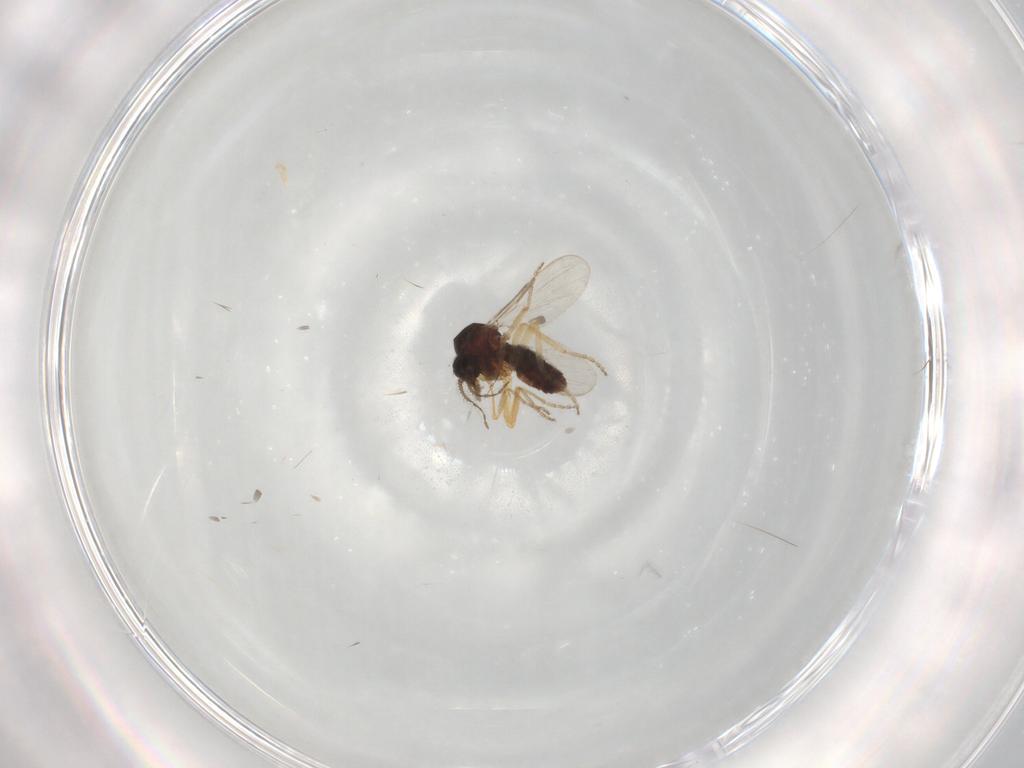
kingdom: Animalia
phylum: Arthropoda
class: Insecta
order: Diptera
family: Ceratopogonidae
